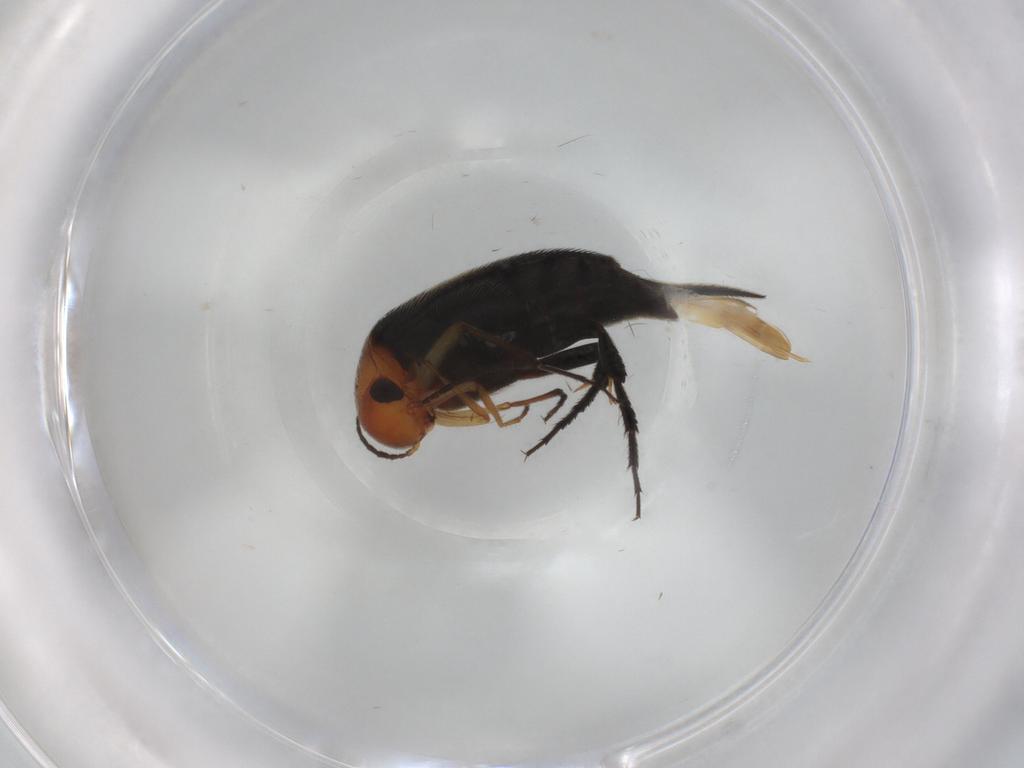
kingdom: Animalia
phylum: Arthropoda
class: Insecta
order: Coleoptera
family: Mordellidae
